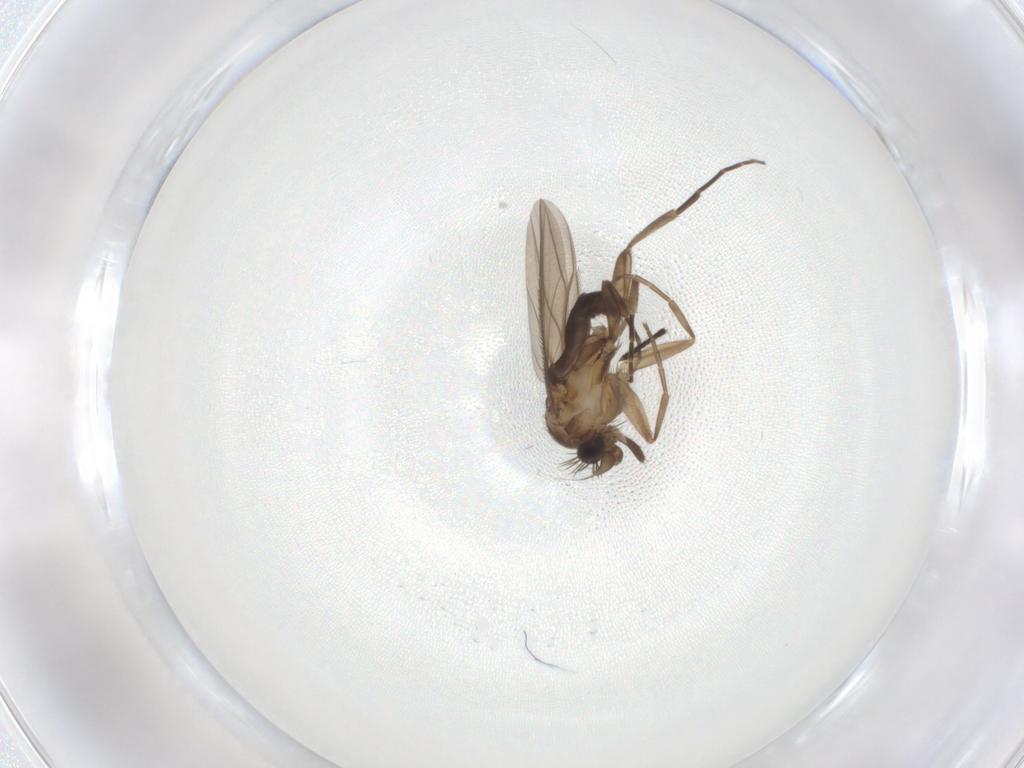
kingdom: Animalia
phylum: Arthropoda
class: Insecta
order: Diptera
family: Phoridae
